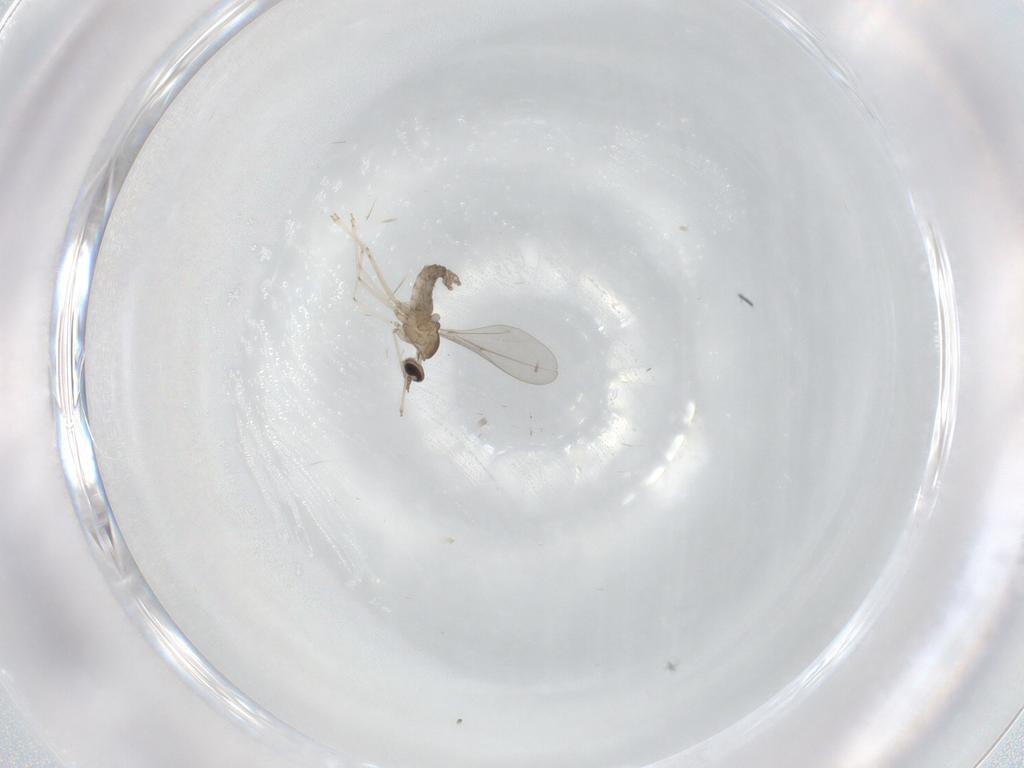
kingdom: Animalia
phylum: Arthropoda
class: Insecta
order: Diptera
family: Cecidomyiidae
